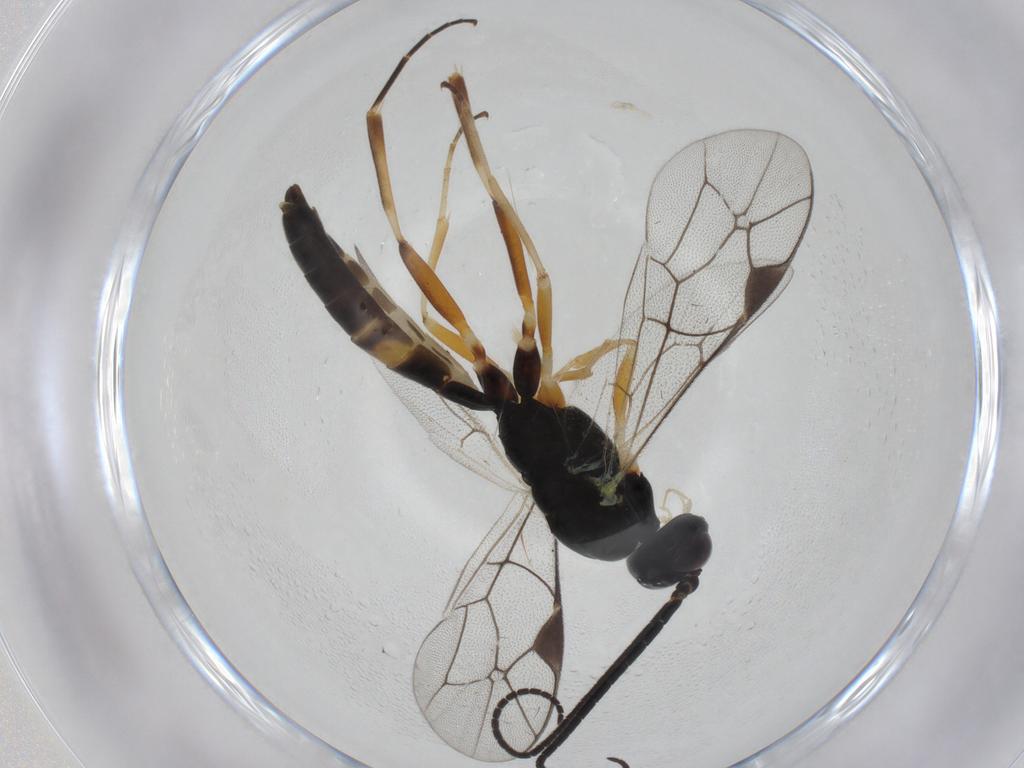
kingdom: Animalia
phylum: Arthropoda
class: Insecta
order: Hymenoptera
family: Ichneumonidae
